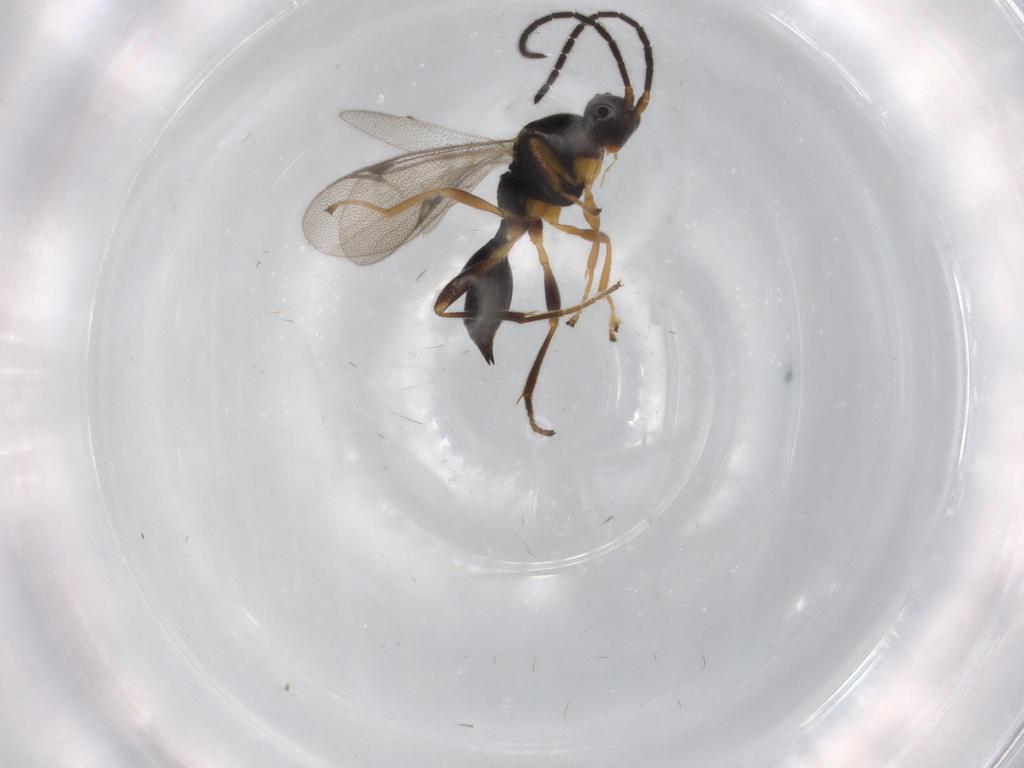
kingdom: Animalia
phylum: Arthropoda
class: Insecta
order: Hymenoptera
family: Proctotrupidae
